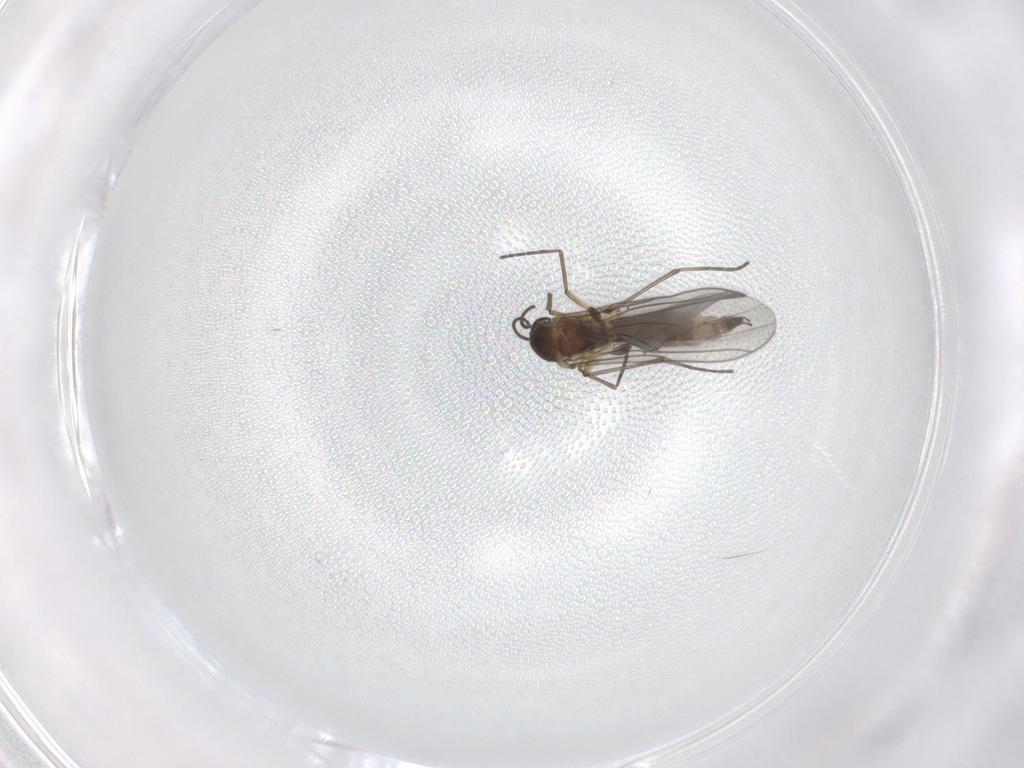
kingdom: Animalia
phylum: Arthropoda
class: Insecta
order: Diptera
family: Sciaridae
